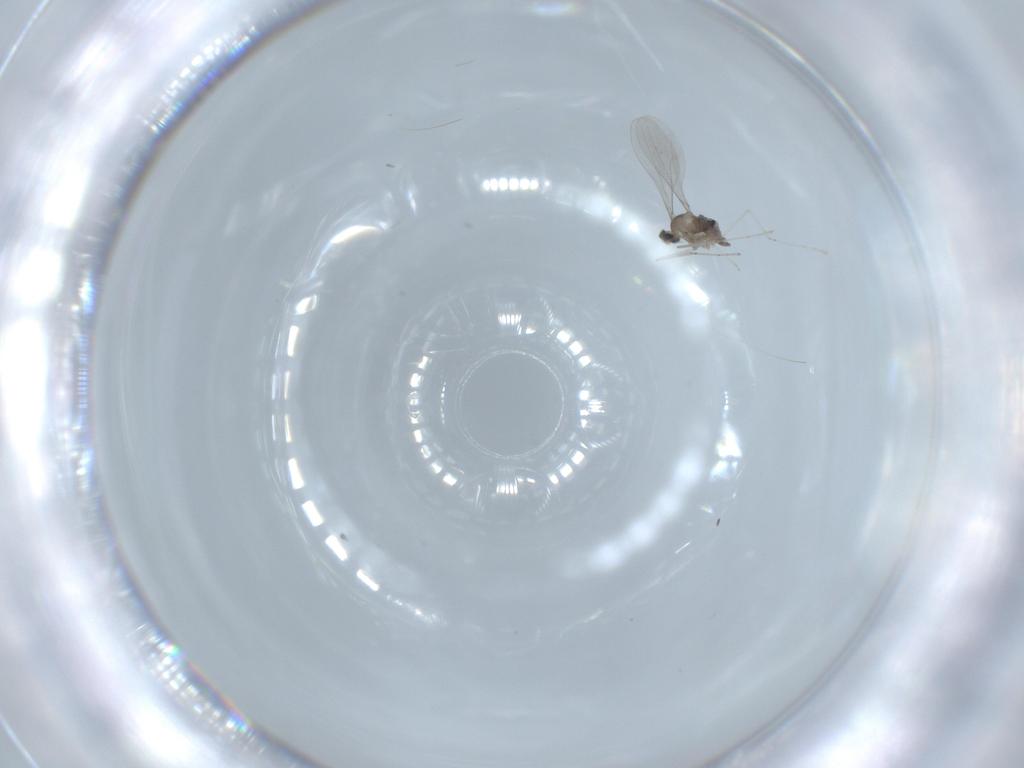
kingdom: Animalia
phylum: Arthropoda
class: Insecta
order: Diptera
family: Cecidomyiidae
